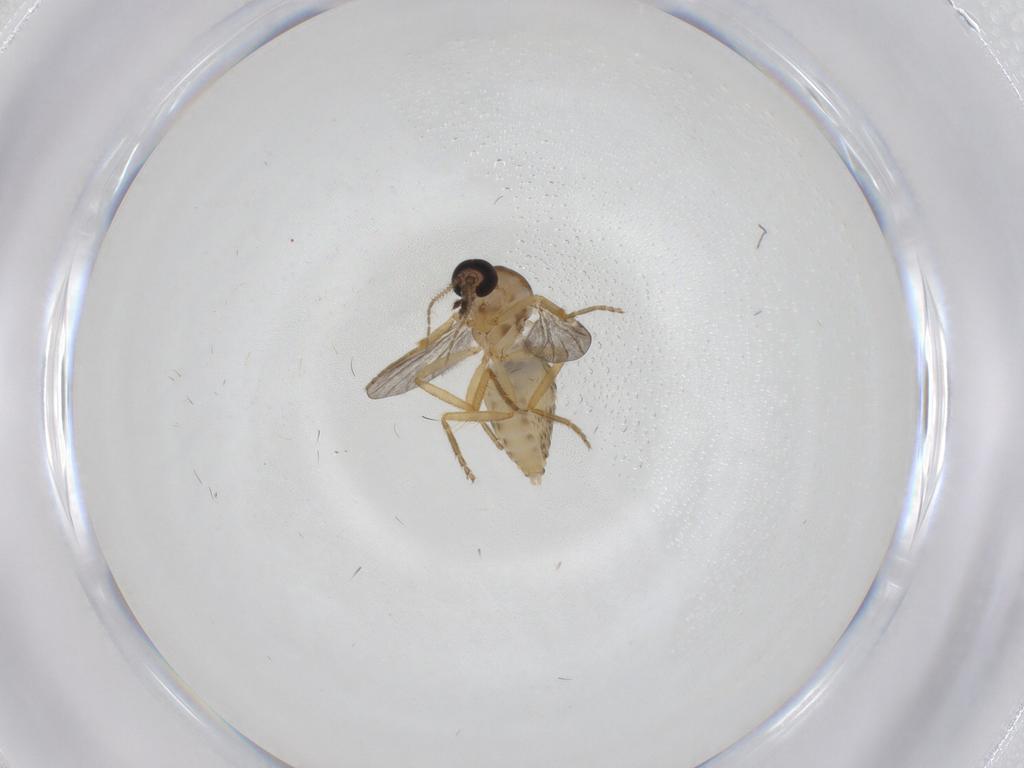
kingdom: Animalia
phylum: Arthropoda
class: Insecta
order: Diptera
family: Ceratopogonidae
